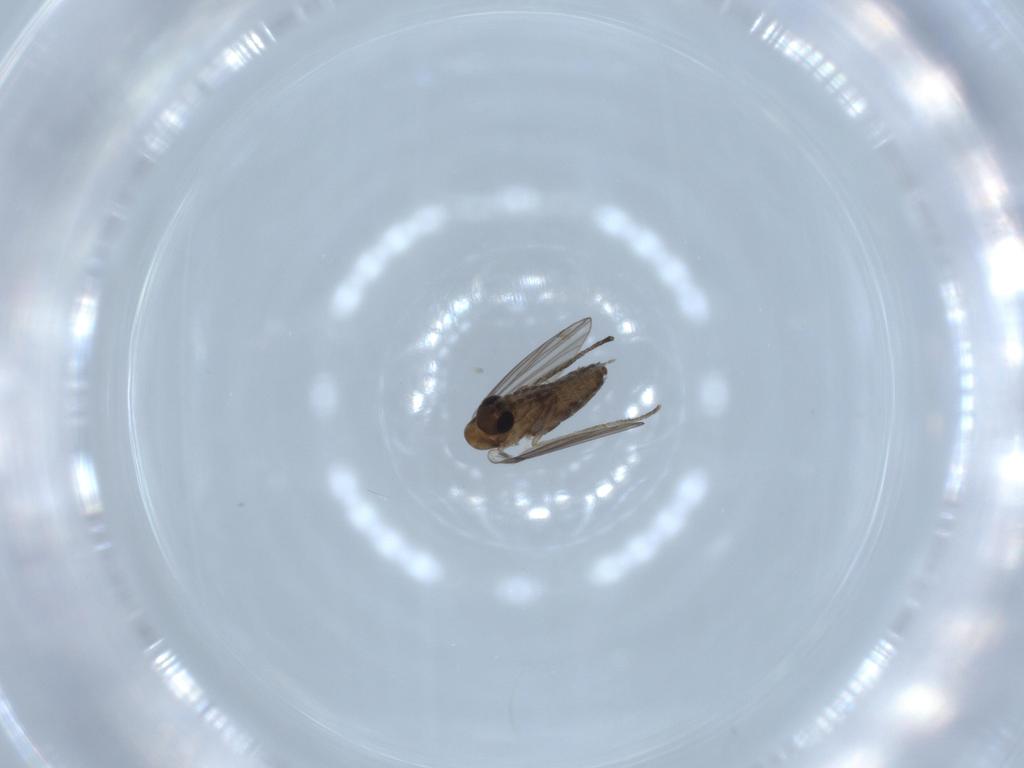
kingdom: Animalia
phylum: Arthropoda
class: Insecta
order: Diptera
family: Psychodidae
